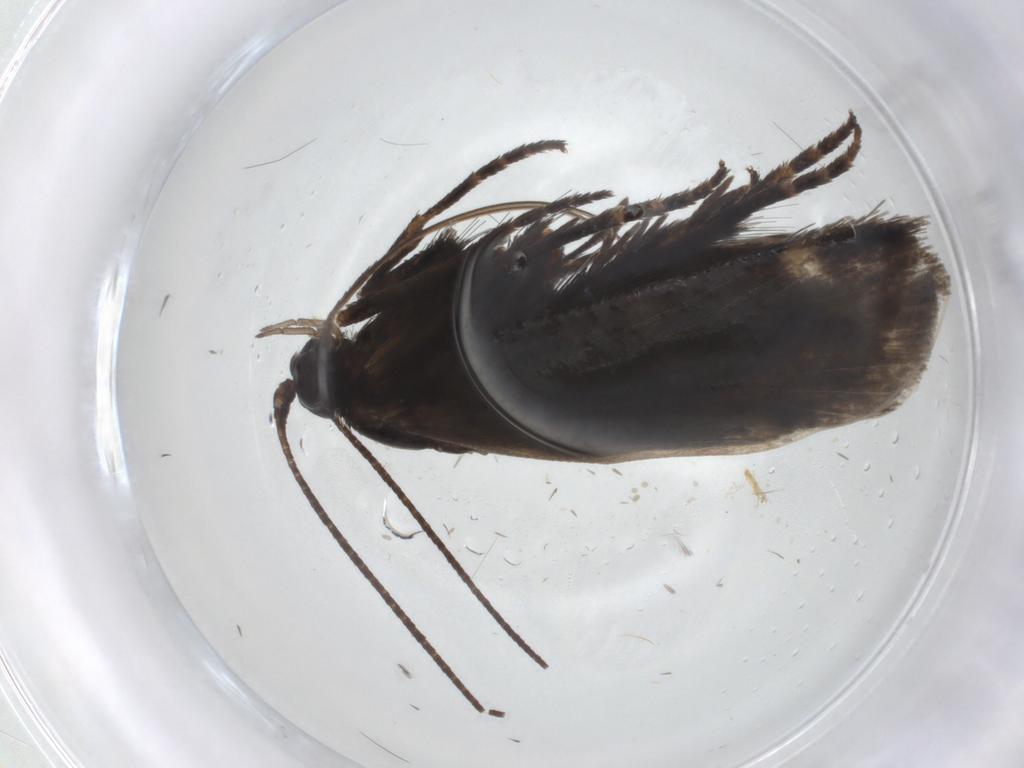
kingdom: Animalia
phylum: Arthropoda
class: Insecta
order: Lepidoptera
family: Adelidae
